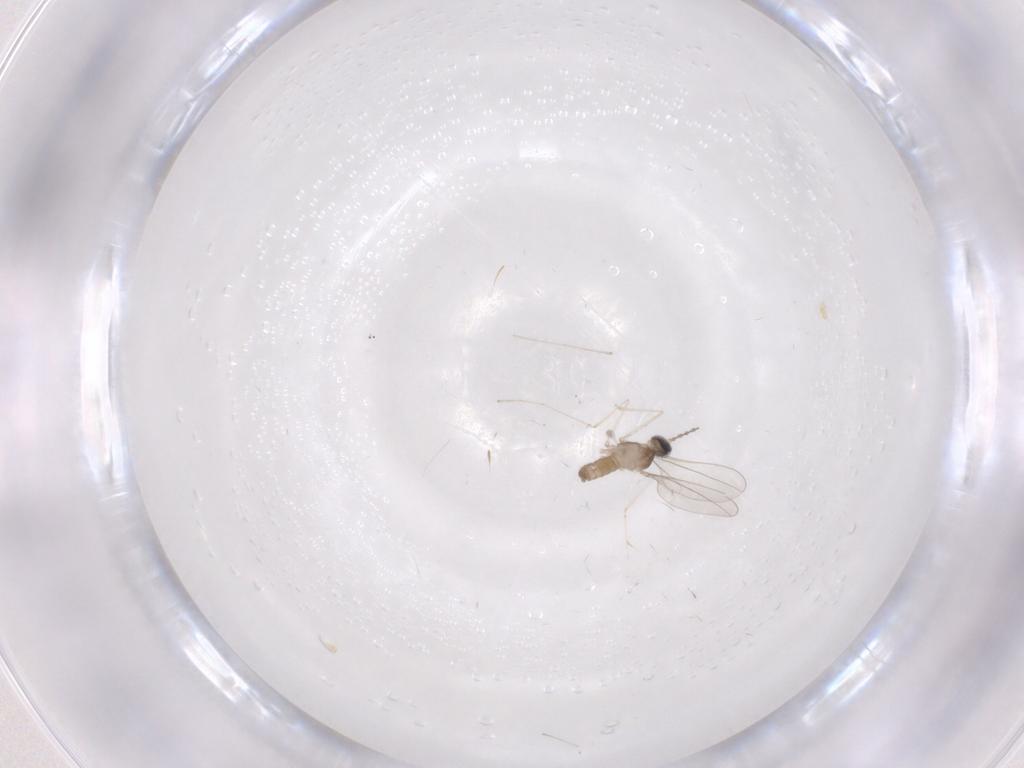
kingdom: Animalia
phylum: Arthropoda
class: Insecta
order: Diptera
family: Cecidomyiidae
